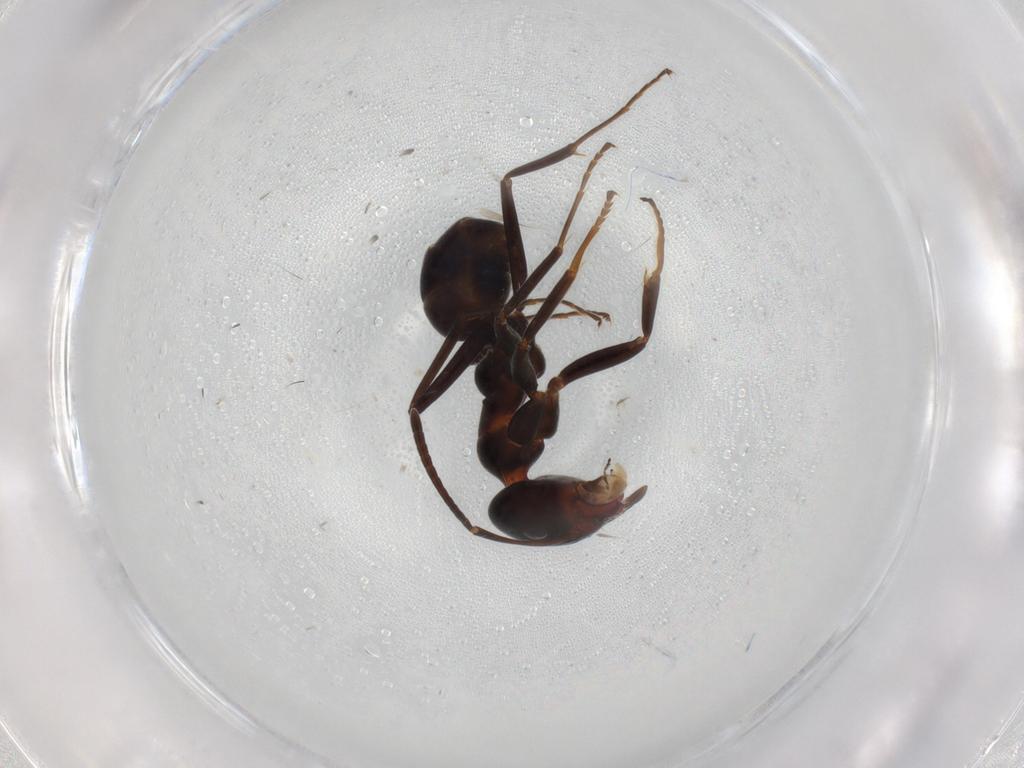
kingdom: Animalia
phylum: Arthropoda
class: Insecta
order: Hymenoptera
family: Formicidae
